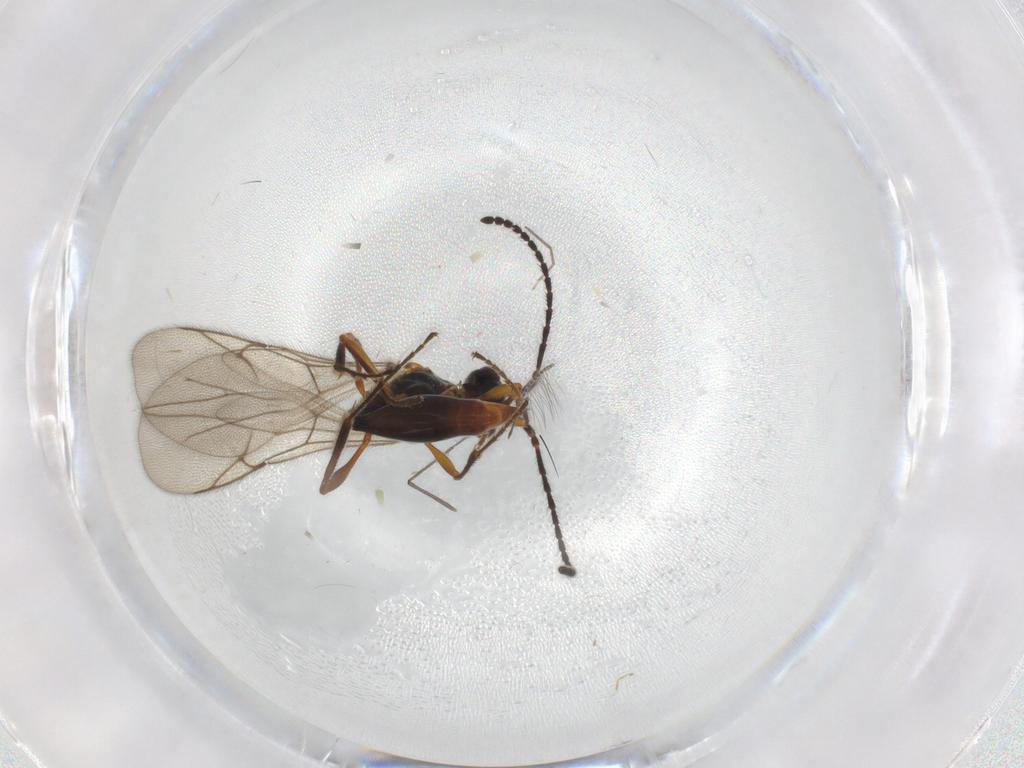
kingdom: Animalia
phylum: Arthropoda
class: Insecta
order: Hymenoptera
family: Diapriidae
